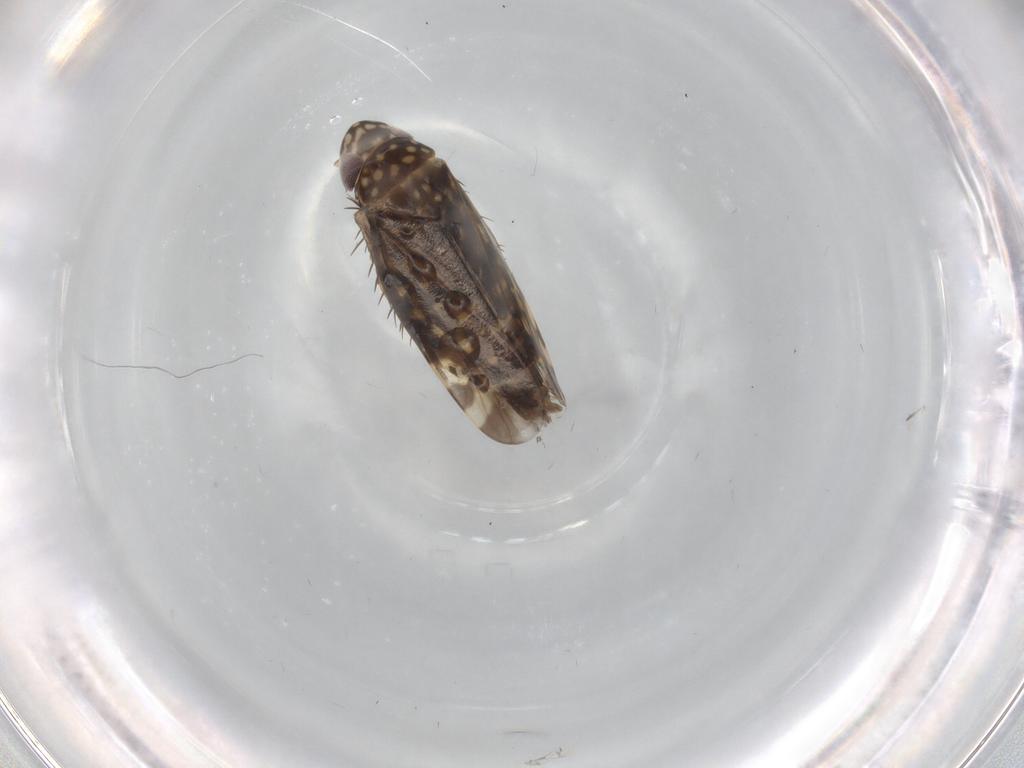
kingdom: Animalia
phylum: Arthropoda
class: Insecta
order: Hemiptera
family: Cicadellidae
